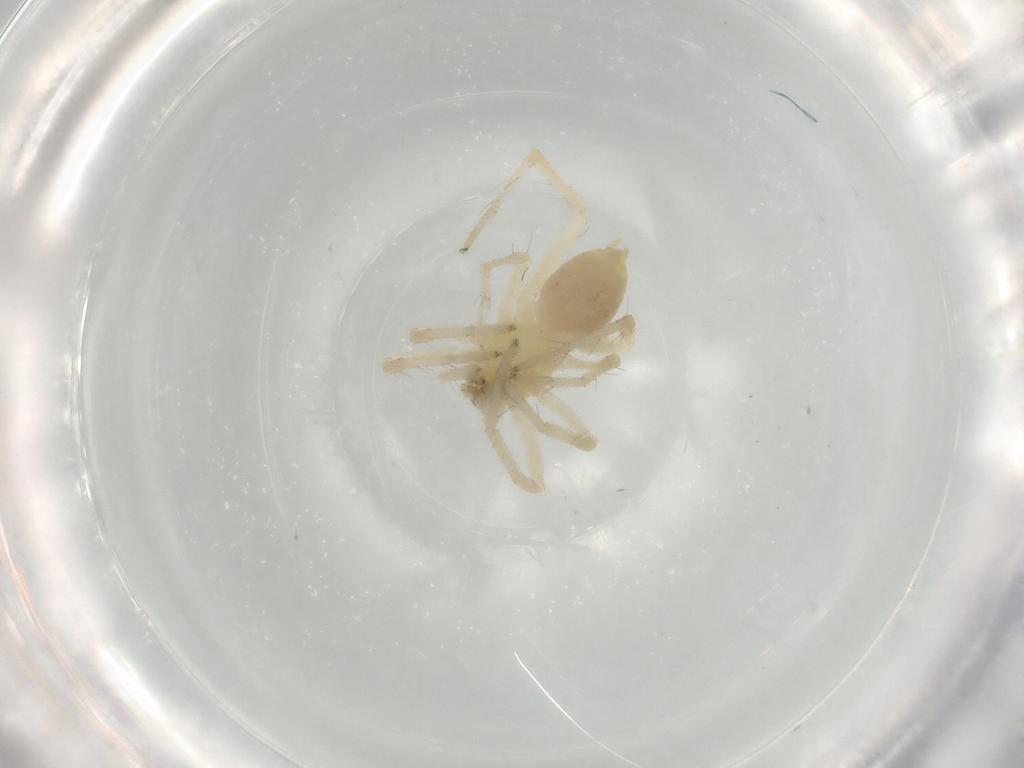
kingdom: Animalia
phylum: Arthropoda
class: Arachnida
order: Araneae
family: Anyphaenidae
